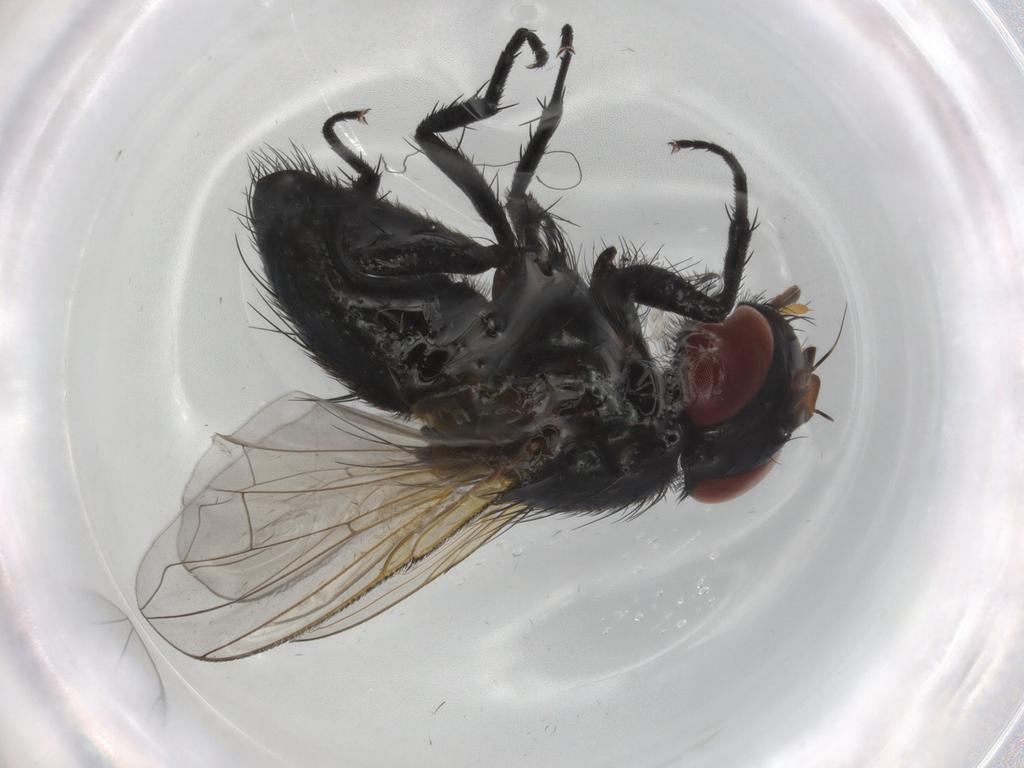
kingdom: Animalia
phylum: Arthropoda
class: Insecta
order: Diptera
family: Tachinidae
